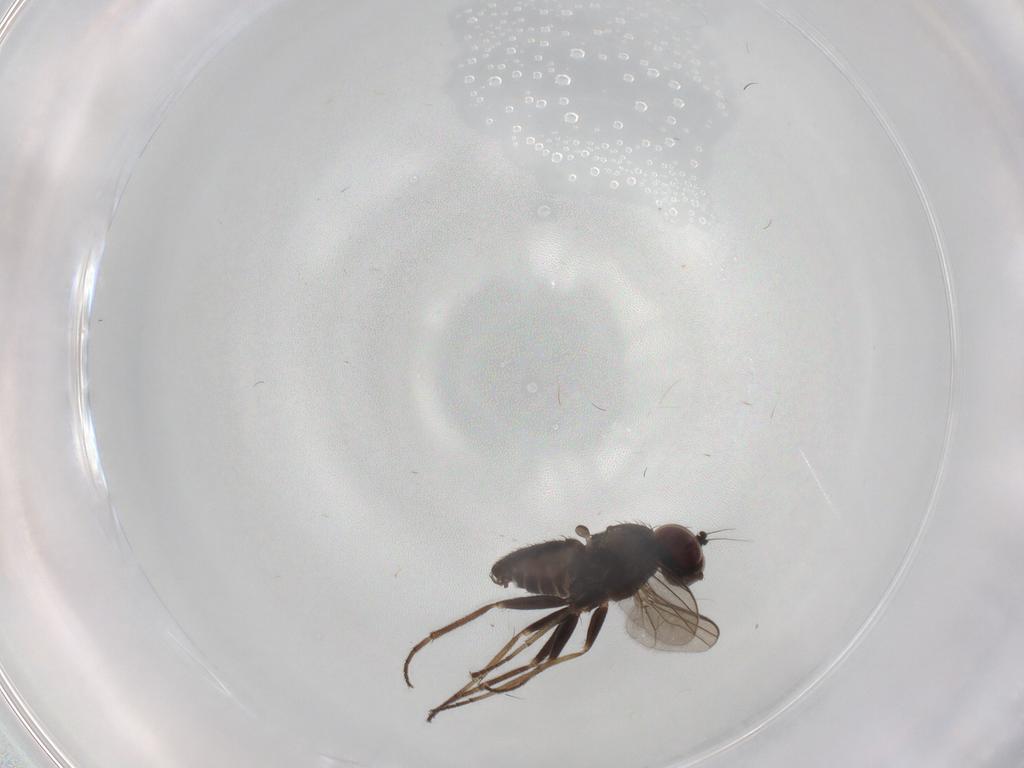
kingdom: Animalia
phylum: Arthropoda
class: Insecta
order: Diptera
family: Dolichopodidae
